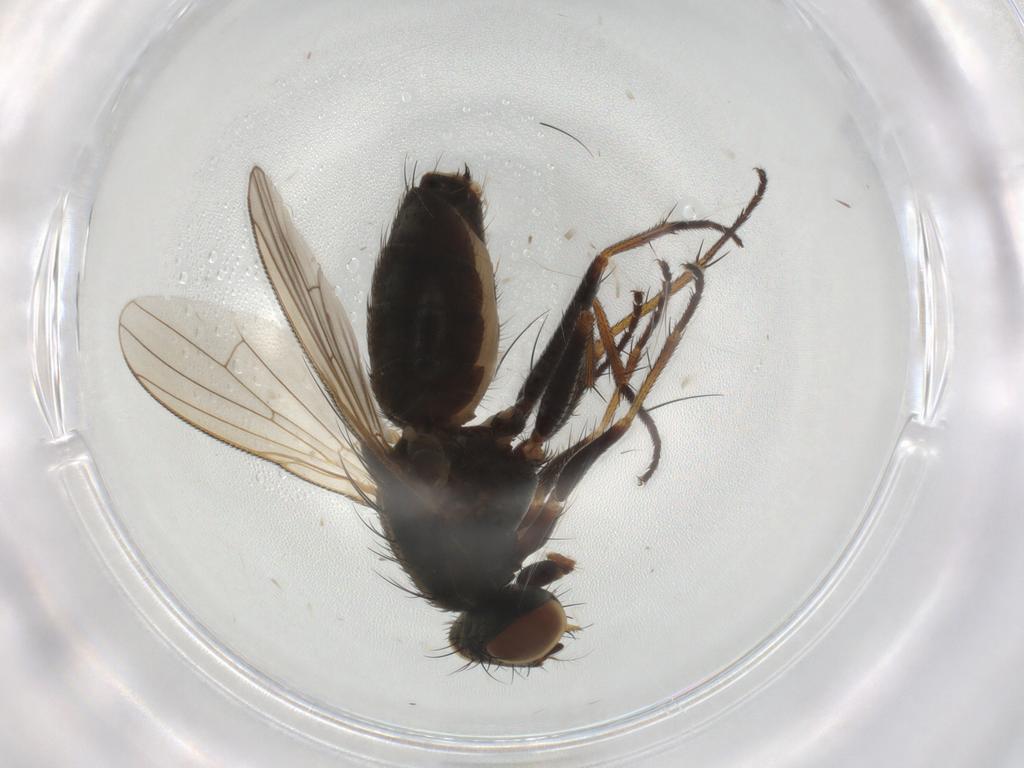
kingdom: Animalia
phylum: Arthropoda
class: Insecta
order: Diptera
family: Muscidae
